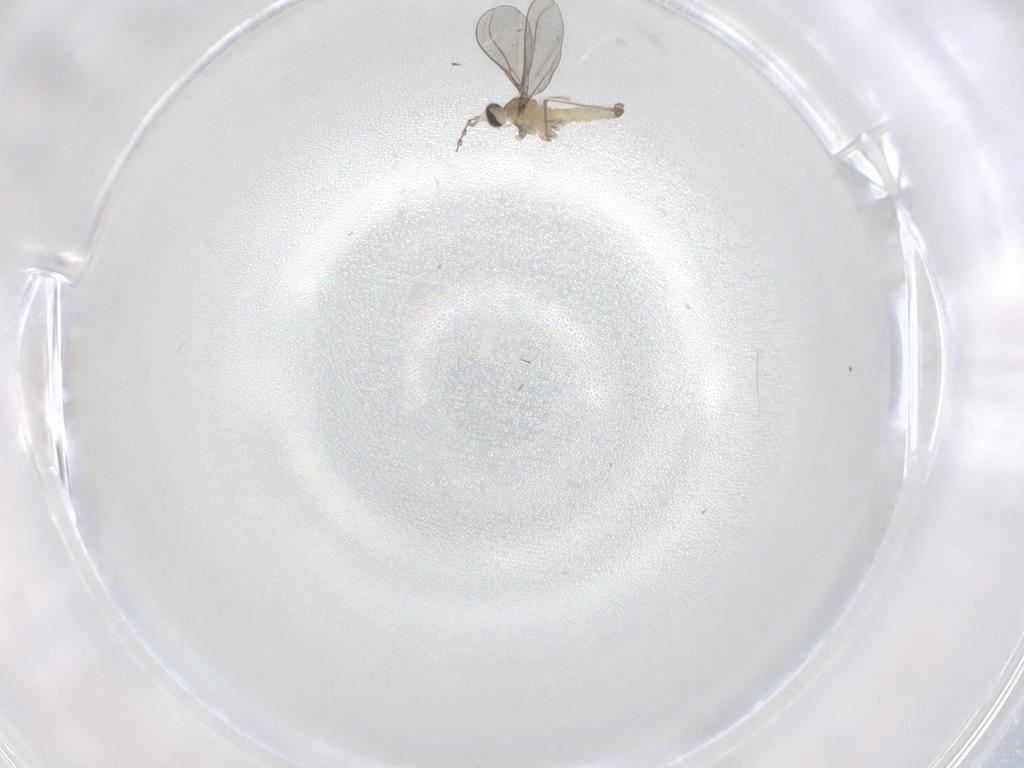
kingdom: Animalia
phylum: Arthropoda
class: Insecta
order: Diptera
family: Cecidomyiidae
